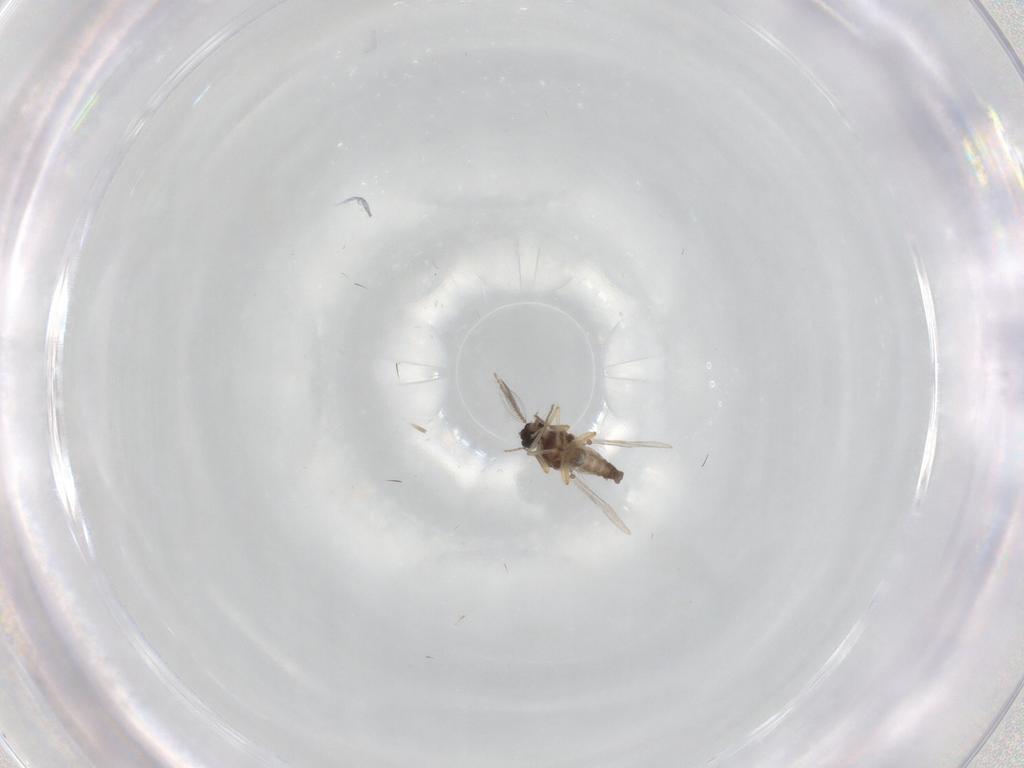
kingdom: Animalia
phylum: Arthropoda
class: Insecta
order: Diptera
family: Ceratopogonidae
